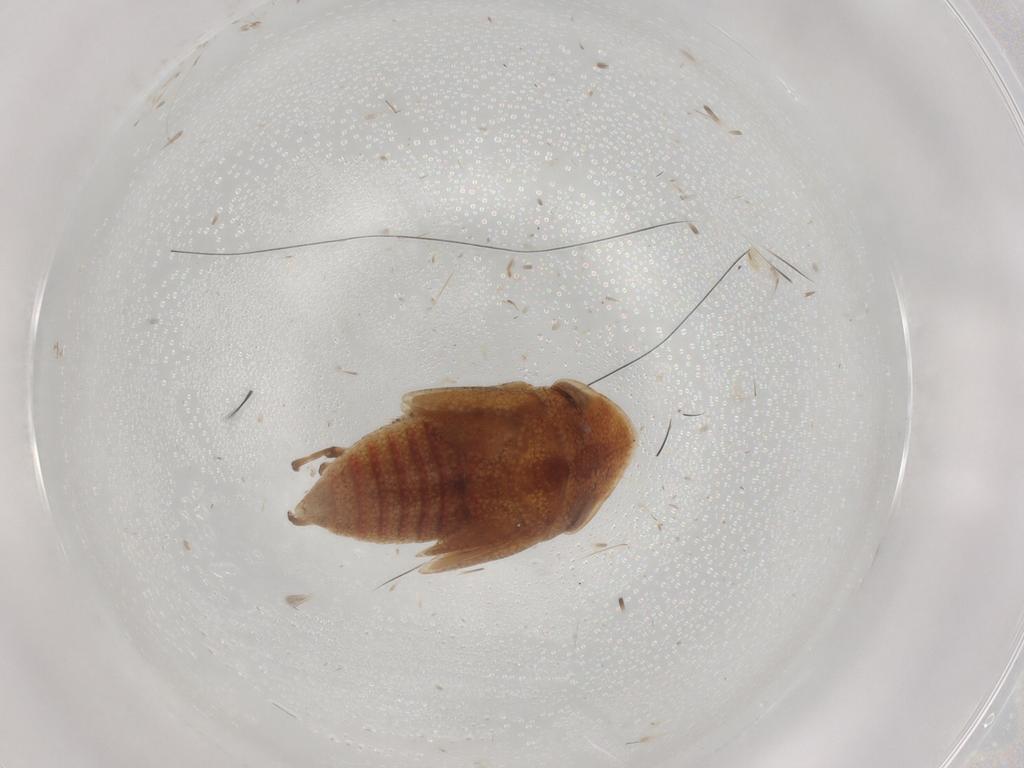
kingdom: Animalia
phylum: Arthropoda
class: Insecta
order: Hemiptera
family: Cicadellidae
